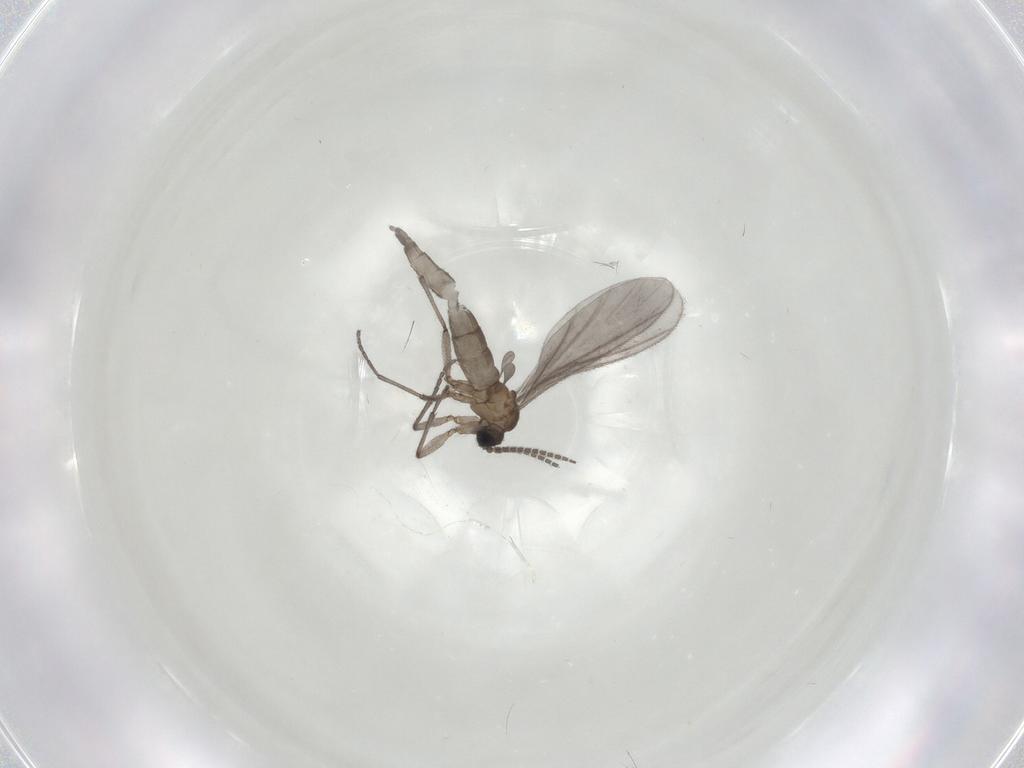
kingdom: Animalia
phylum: Arthropoda
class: Insecta
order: Diptera
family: Sciaridae
